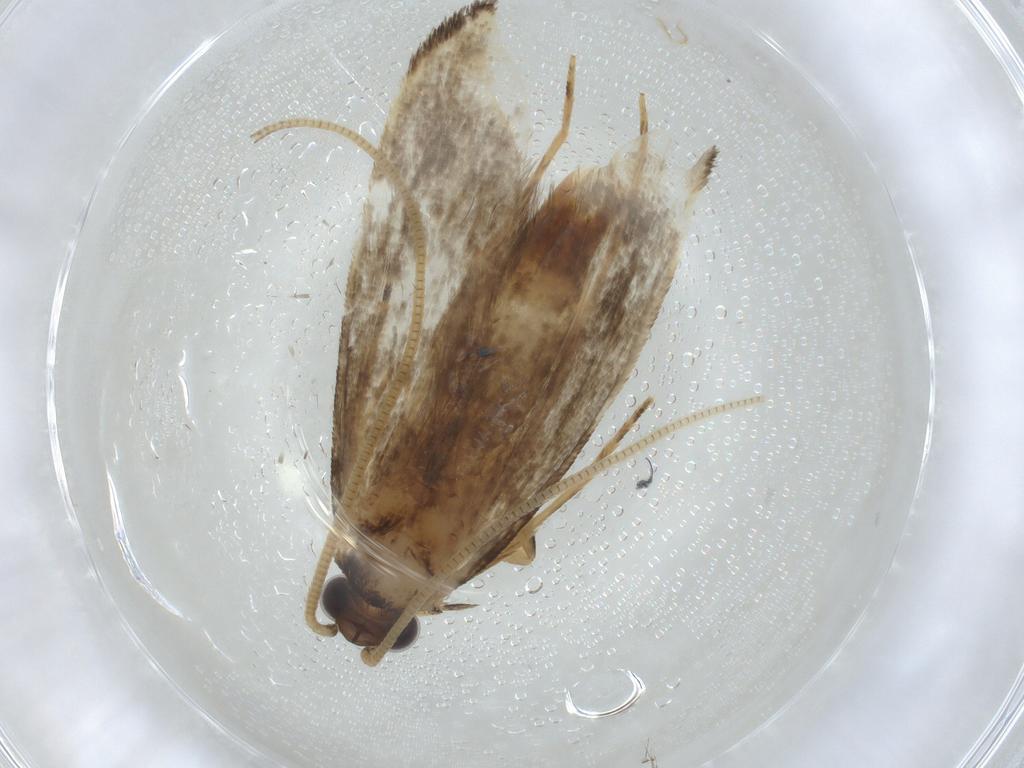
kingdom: Animalia
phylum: Arthropoda
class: Insecta
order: Lepidoptera
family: Tineidae
